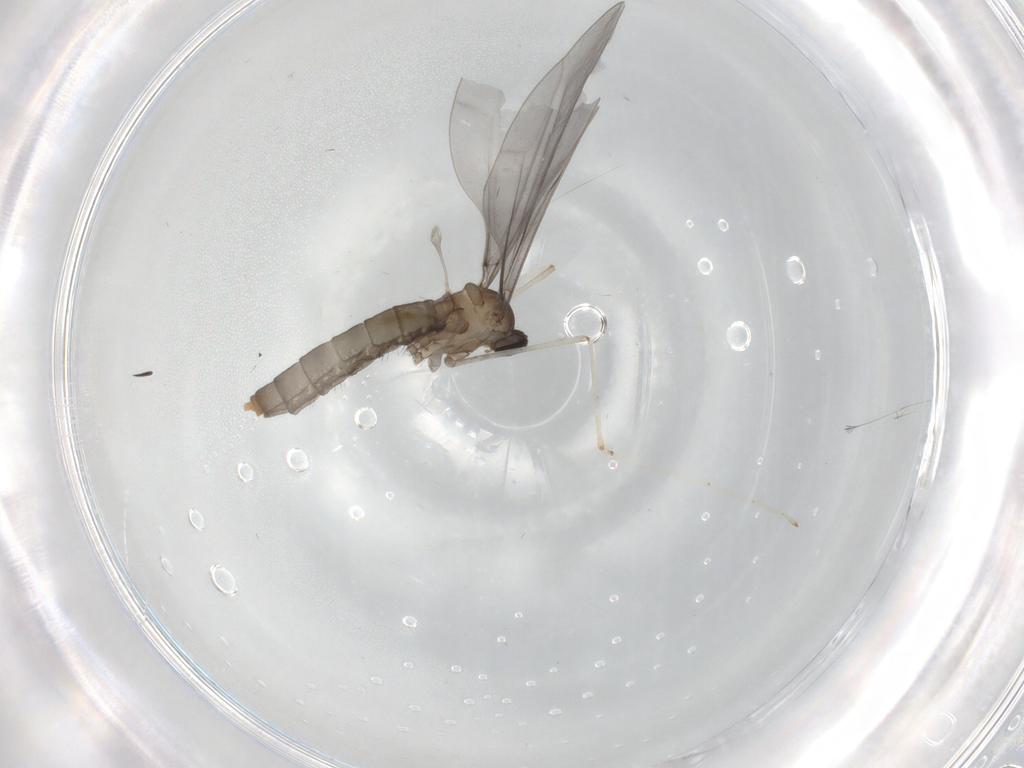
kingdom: Animalia
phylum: Arthropoda
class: Insecta
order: Diptera
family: Cecidomyiidae
